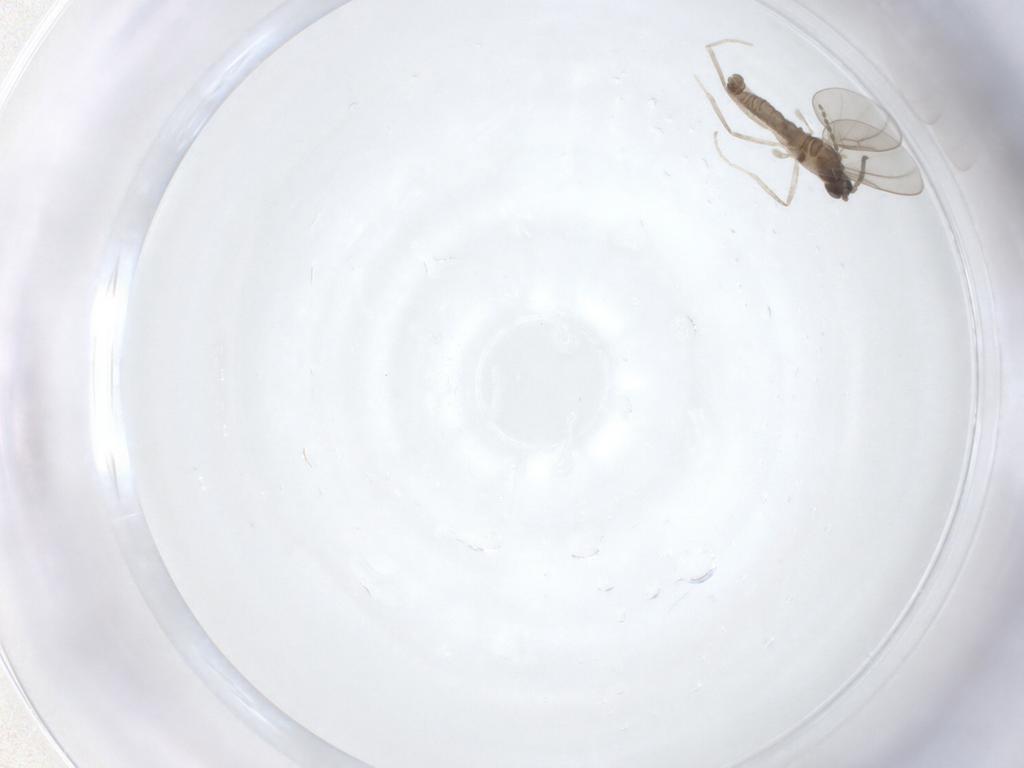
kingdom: Animalia
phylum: Arthropoda
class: Insecta
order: Diptera
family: Cecidomyiidae
